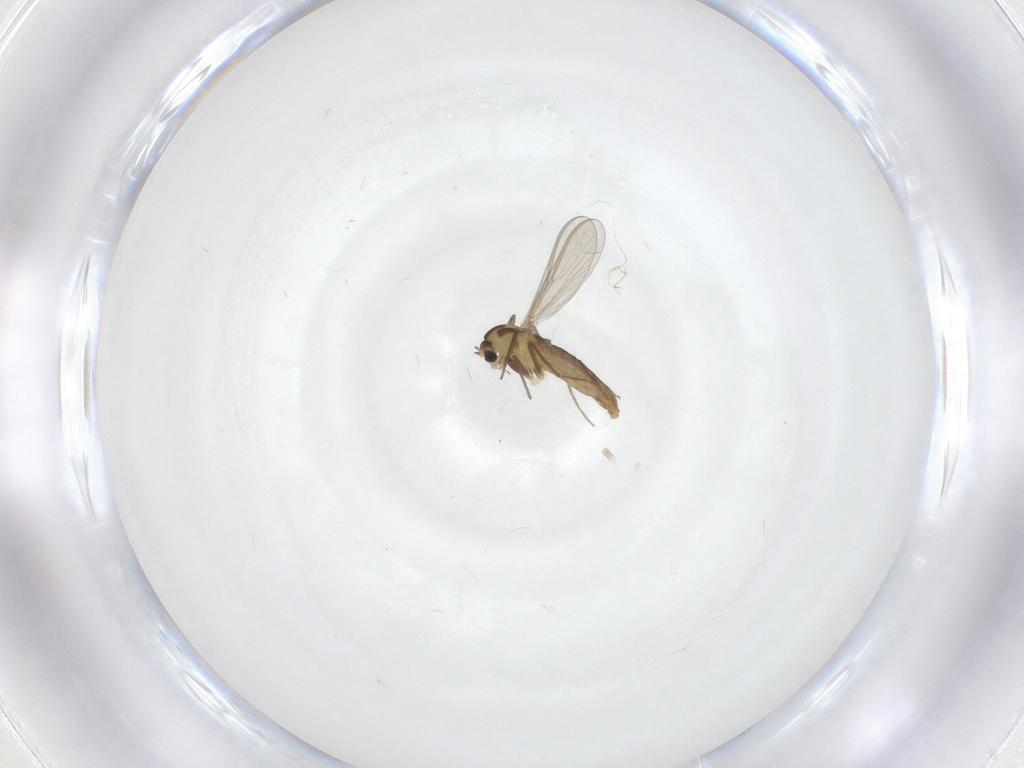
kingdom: Animalia
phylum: Arthropoda
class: Insecta
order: Diptera
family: Chironomidae
